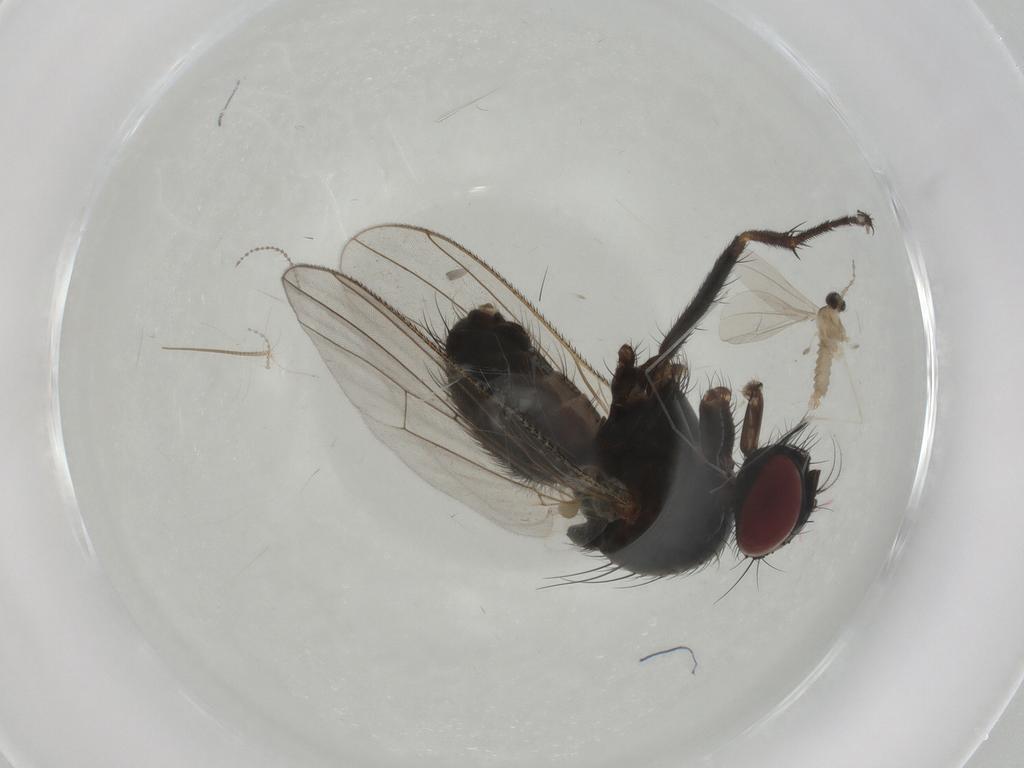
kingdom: Animalia
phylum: Arthropoda
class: Insecta
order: Diptera
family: Muscidae
